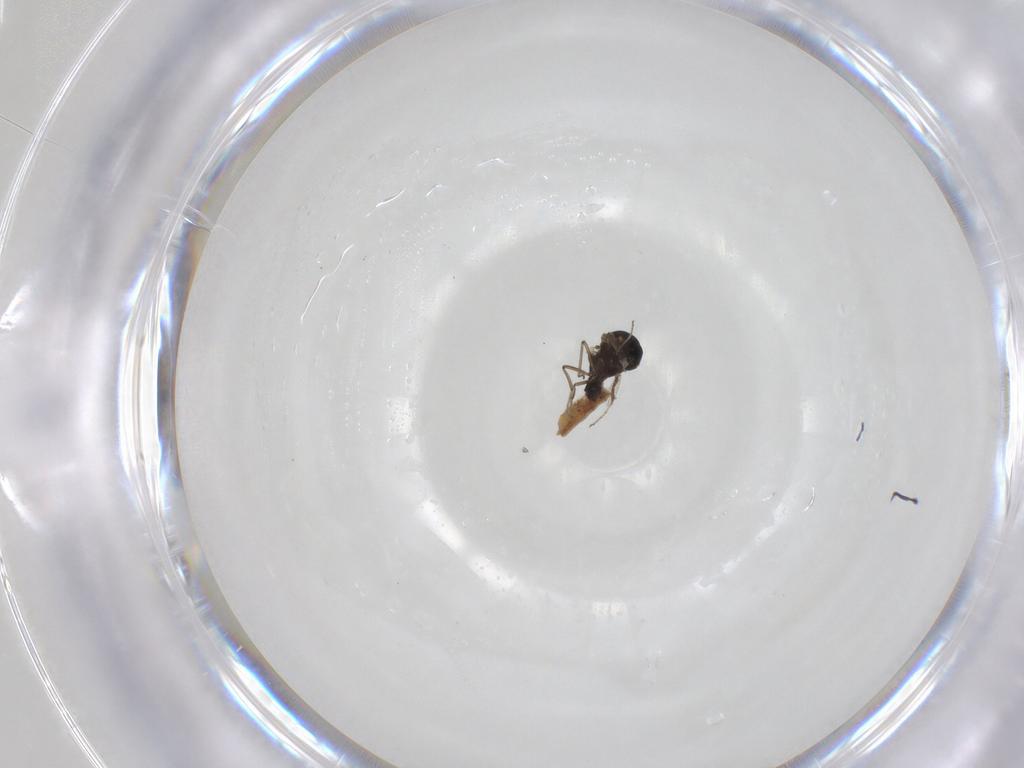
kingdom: Animalia
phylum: Arthropoda
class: Insecta
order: Diptera
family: Ceratopogonidae
